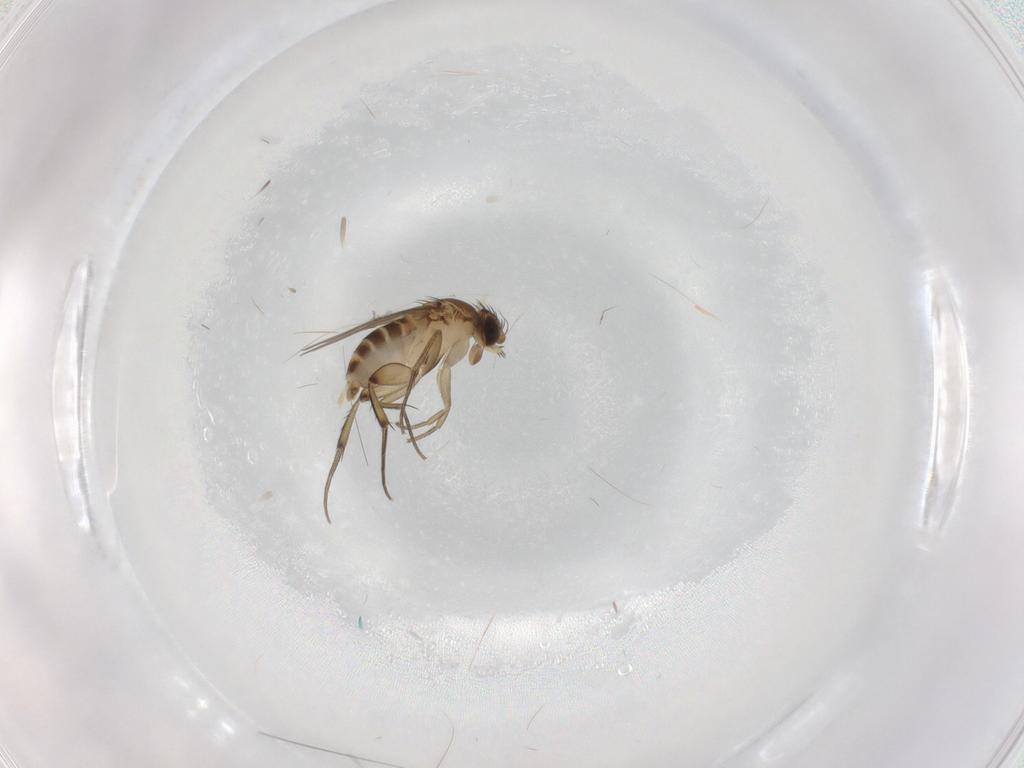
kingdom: Animalia
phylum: Arthropoda
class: Insecta
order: Diptera
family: Phoridae
